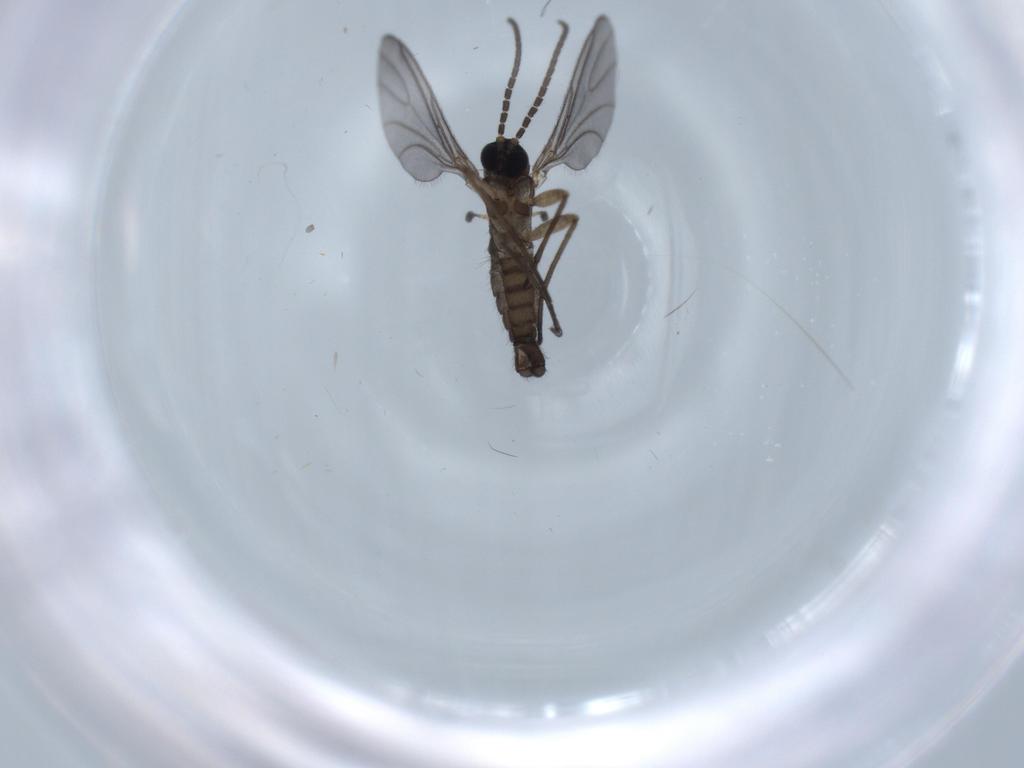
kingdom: Animalia
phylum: Arthropoda
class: Insecta
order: Diptera
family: Sciaridae
